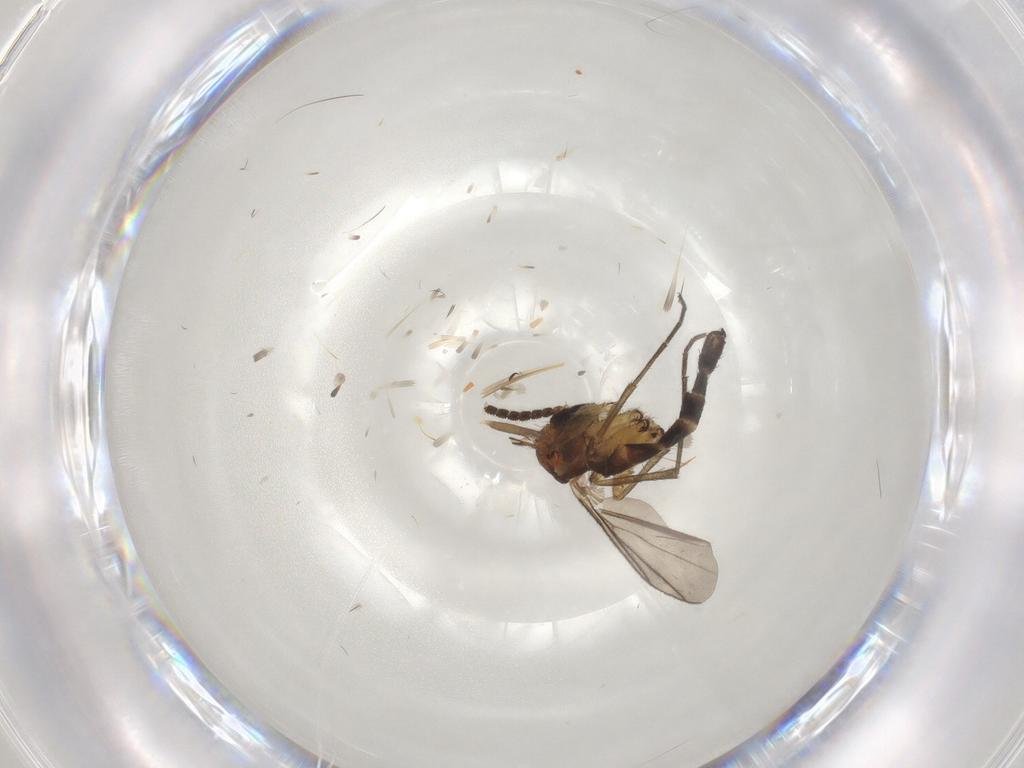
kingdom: Animalia
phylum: Arthropoda
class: Insecta
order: Diptera
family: Mycetophilidae
